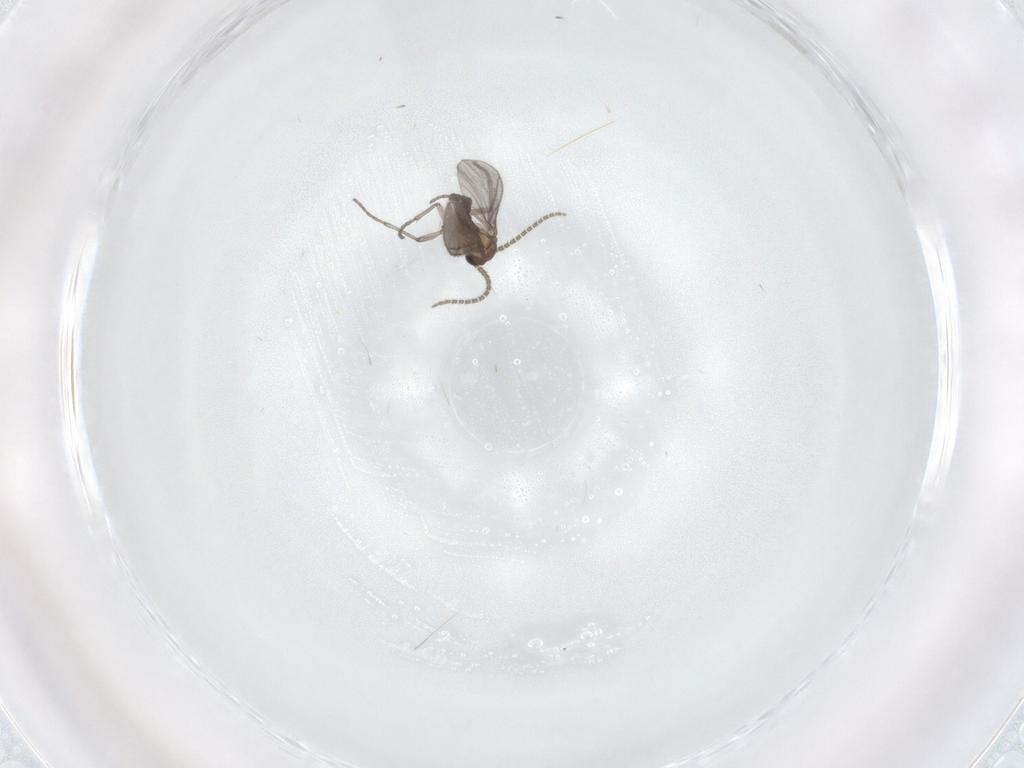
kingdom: Animalia
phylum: Arthropoda
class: Insecta
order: Diptera
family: Sciaridae
